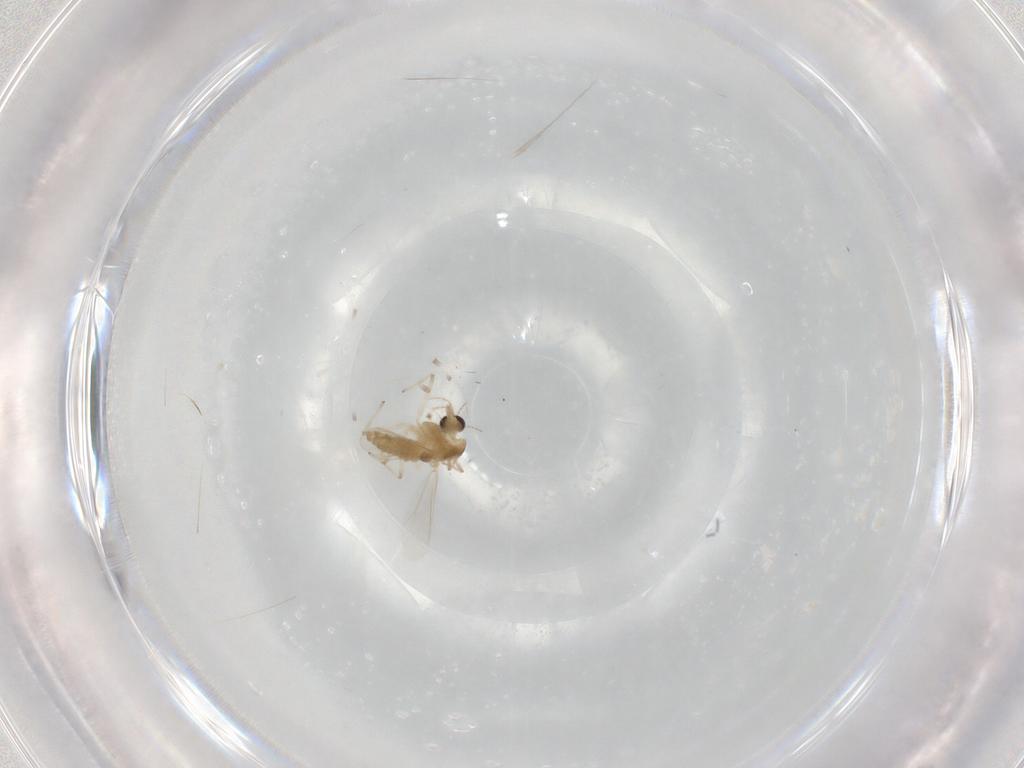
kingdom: Animalia
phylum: Arthropoda
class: Insecta
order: Diptera
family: Chironomidae
